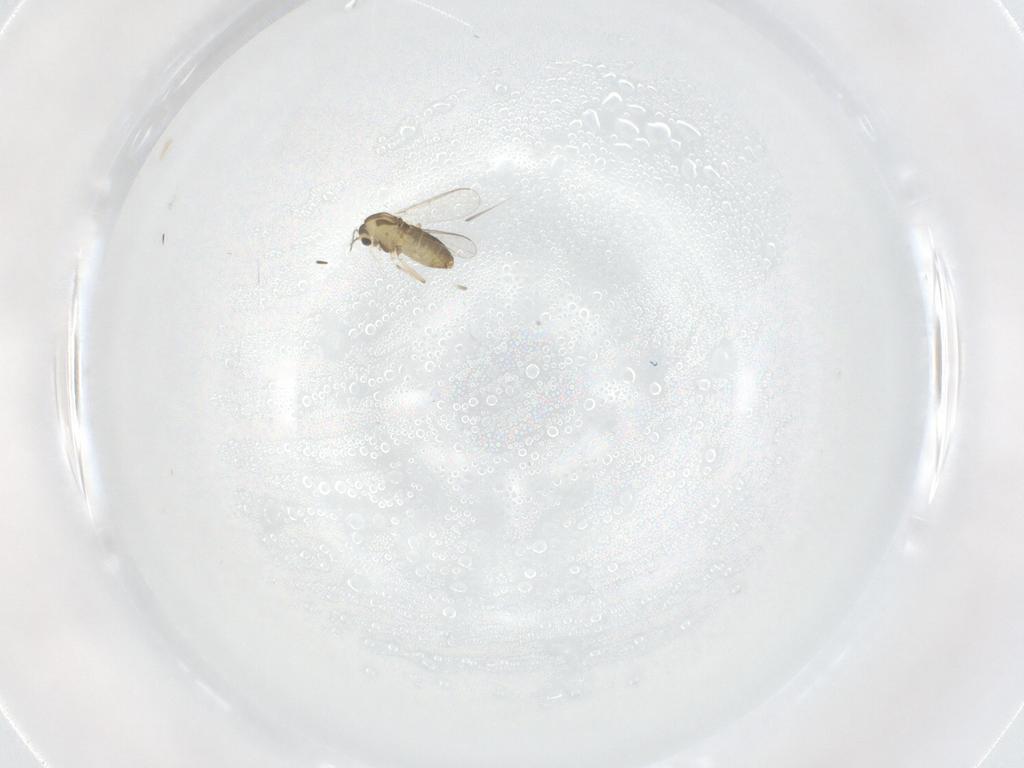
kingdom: Animalia
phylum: Arthropoda
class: Insecta
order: Diptera
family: Chironomidae
